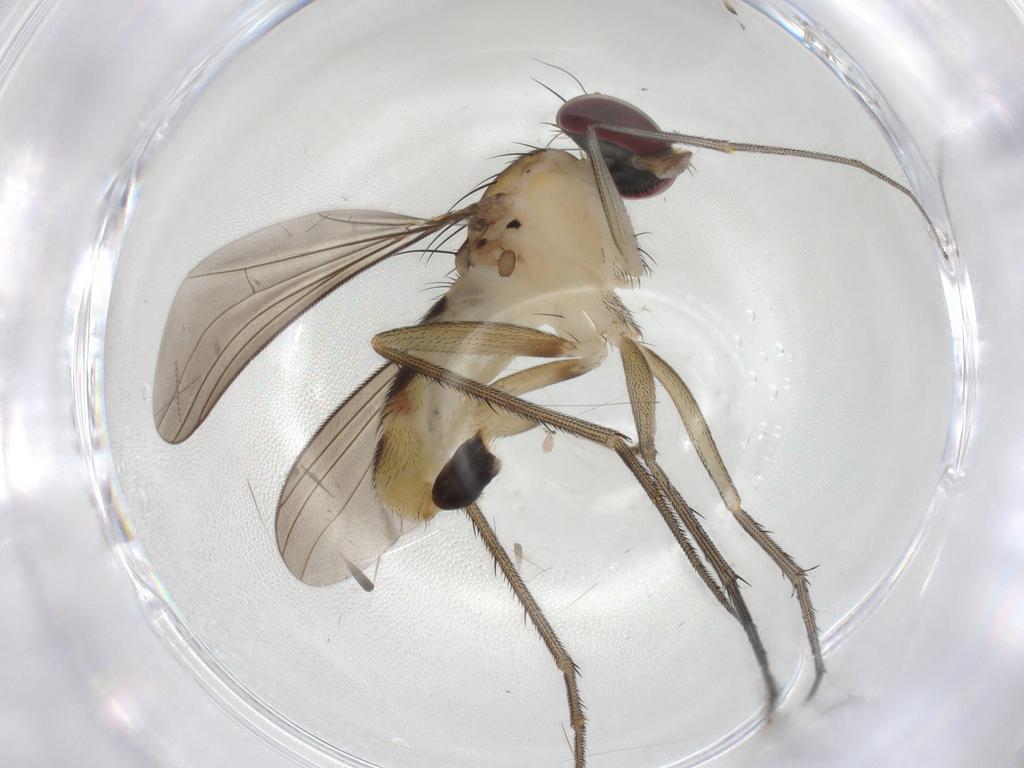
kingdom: Animalia
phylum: Arthropoda
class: Insecta
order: Diptera
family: Dolichopodidae
